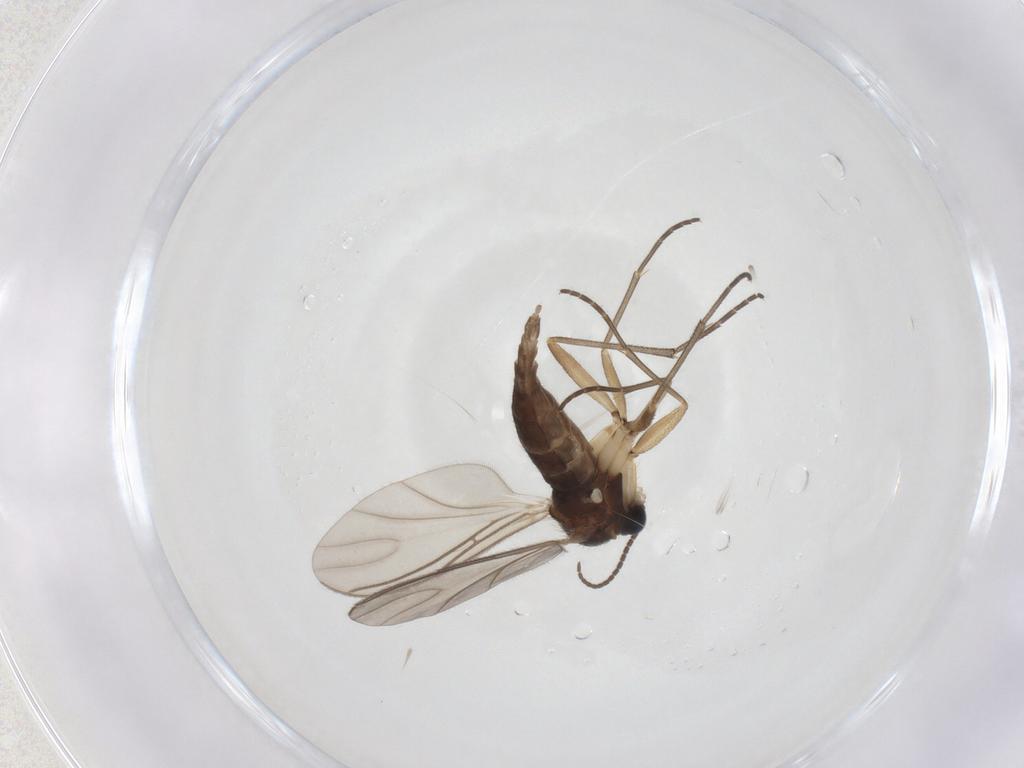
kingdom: Animalia
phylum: Arthropoda
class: Insecta
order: Diptera
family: Sciaridae
